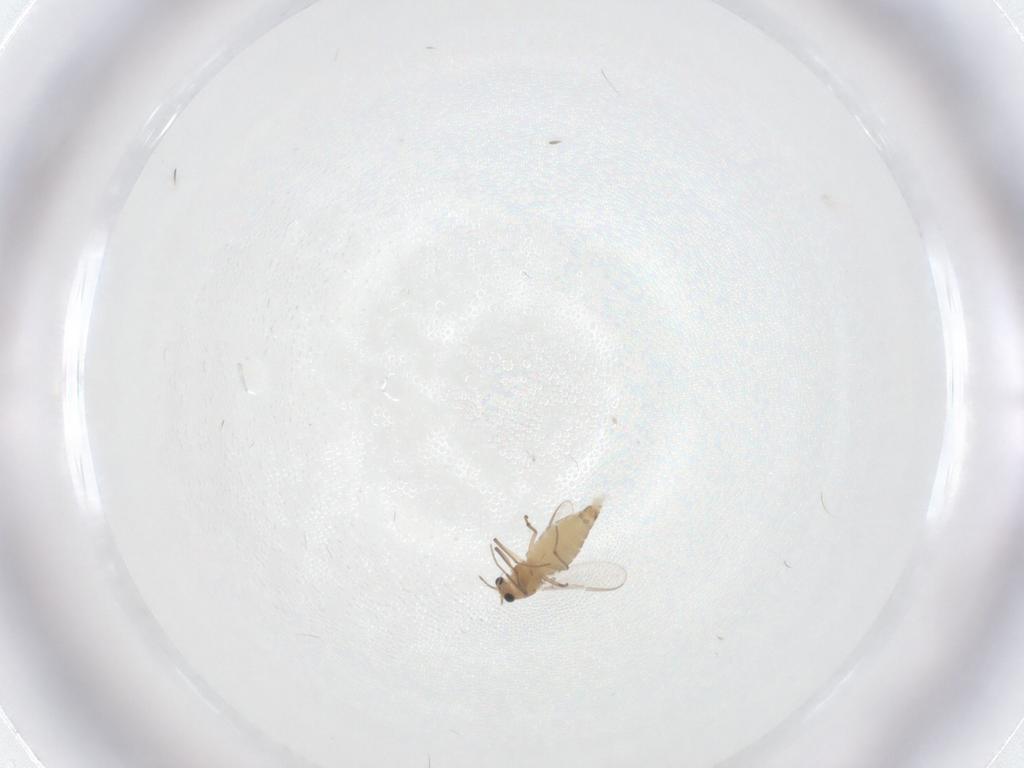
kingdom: Animalia
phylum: Arthropoda
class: Insecta
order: Diptera
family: Chironomidae
